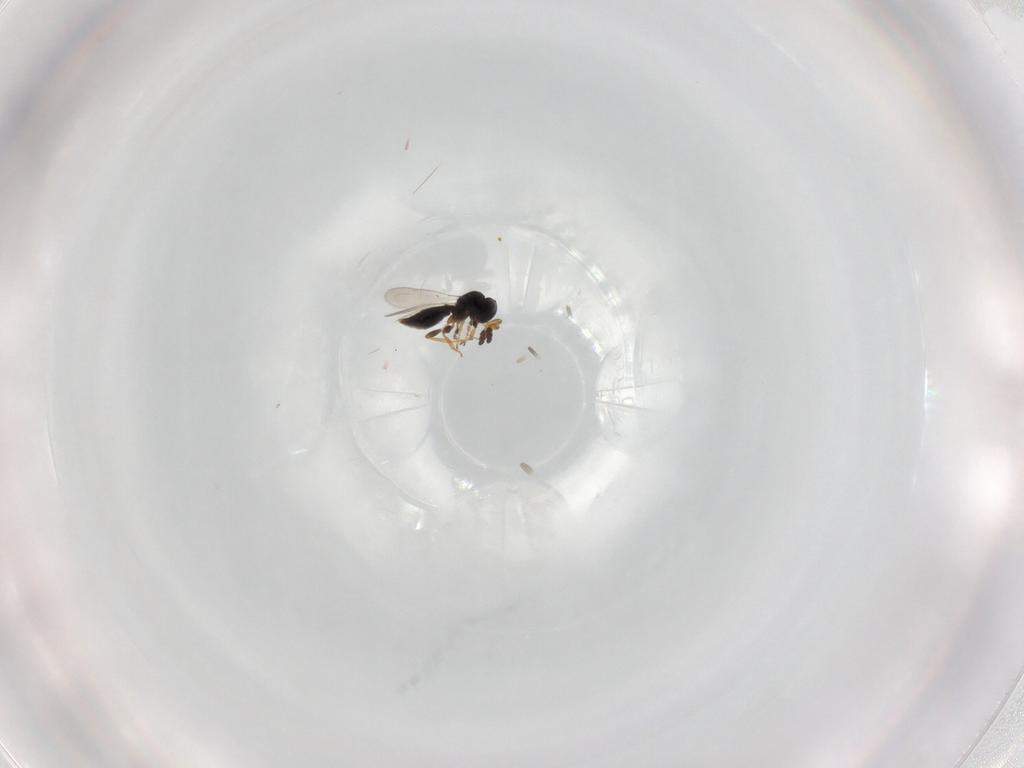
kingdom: Animalia
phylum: Arthropoda
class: Insecta
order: Hymenoptera
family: Platygastridae
